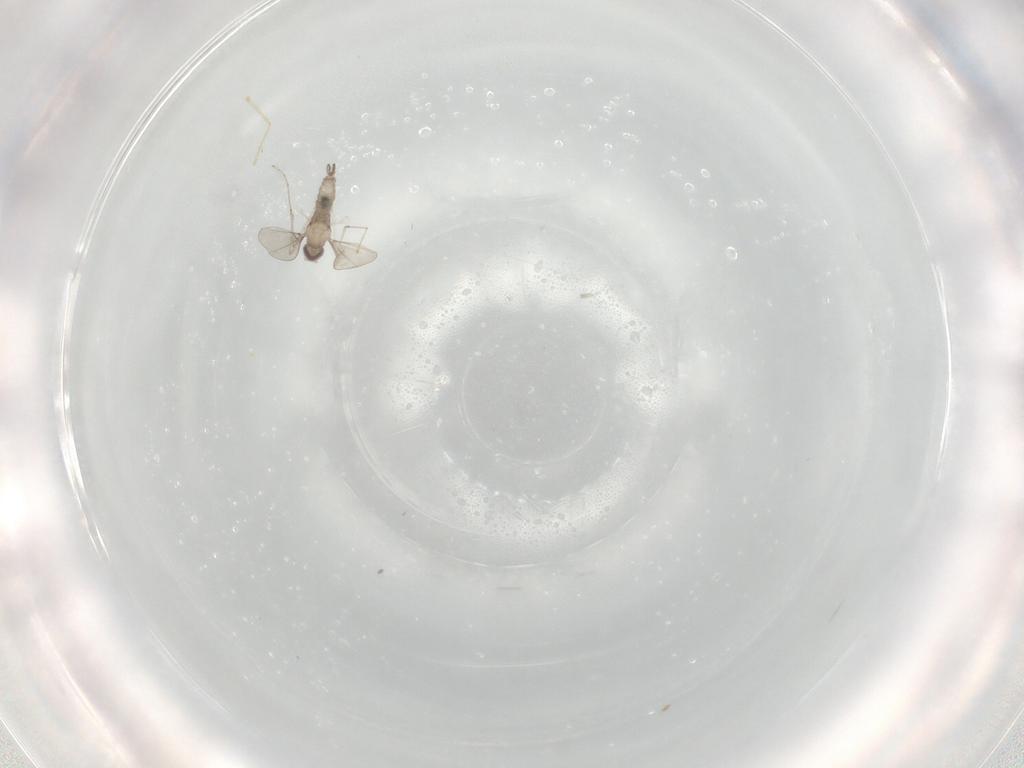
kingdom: Animalia
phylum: Arthropoda
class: Insecta
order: Diptera
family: Cecidomyiidae
